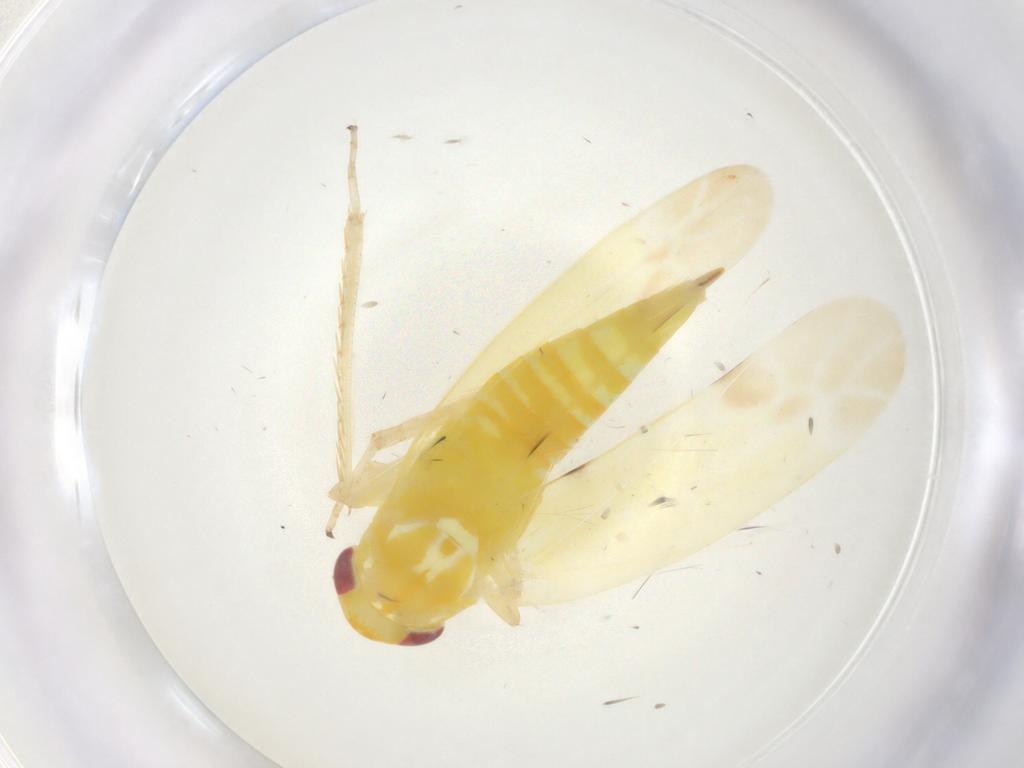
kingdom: Animalia
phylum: Arthropoda
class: Insecta
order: Hemiptera
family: Cicadellidae
